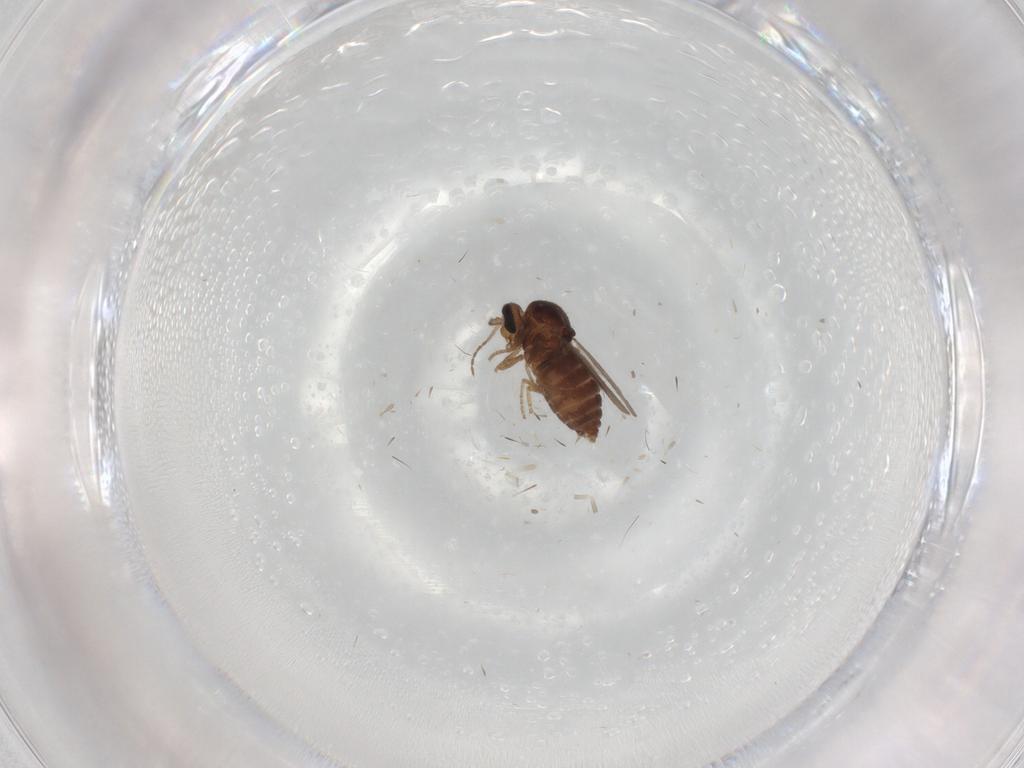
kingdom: Animalia
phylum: Arthropoda
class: Insecta
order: Diptera
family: Ceratopogonidae
